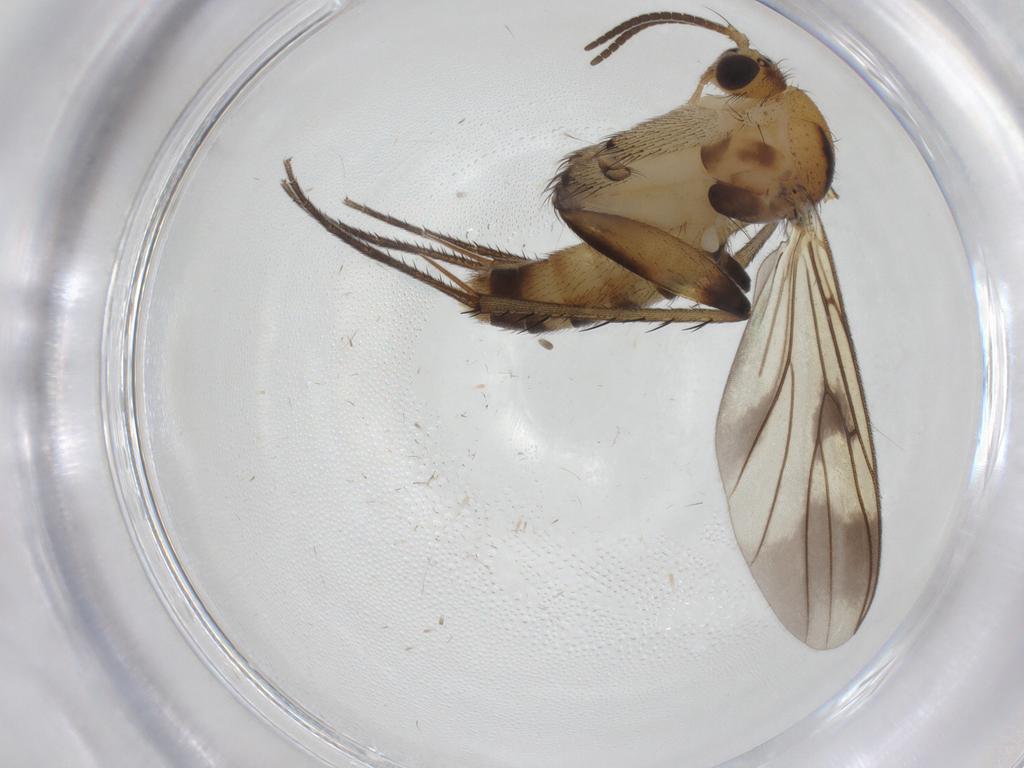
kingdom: Animalia
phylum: Arthropoda
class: Insecta
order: Diptera
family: Mycetophilidae
